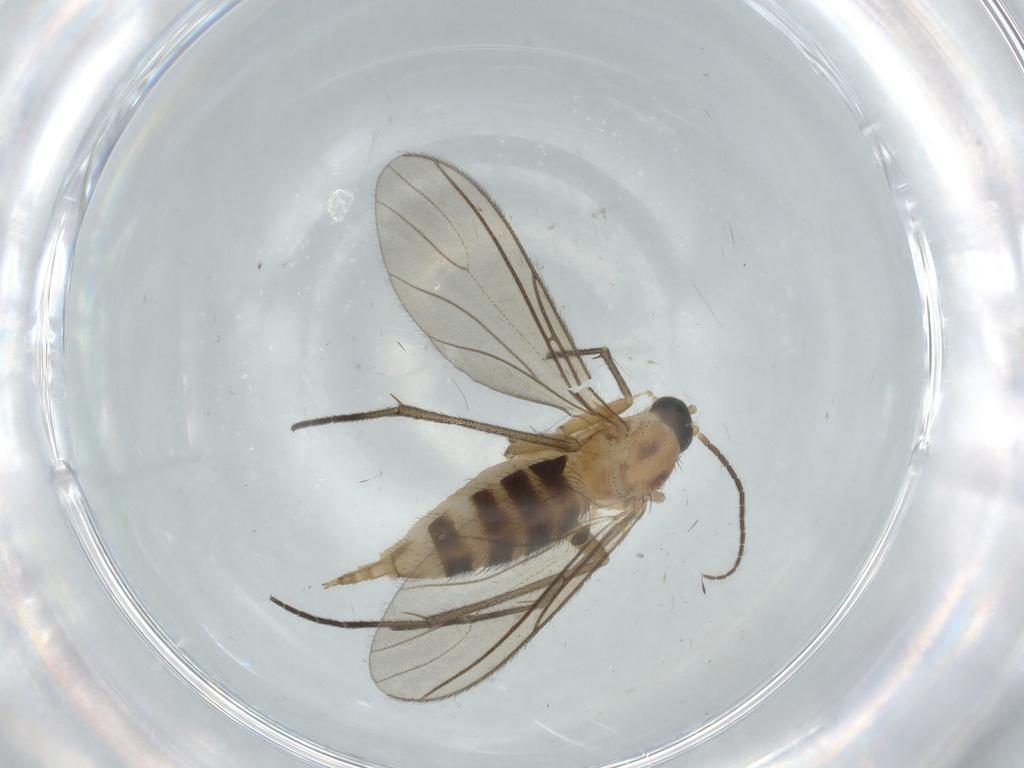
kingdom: Animalia
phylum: Arthropoda
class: Insecta
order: Diptera
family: Sciaridae
